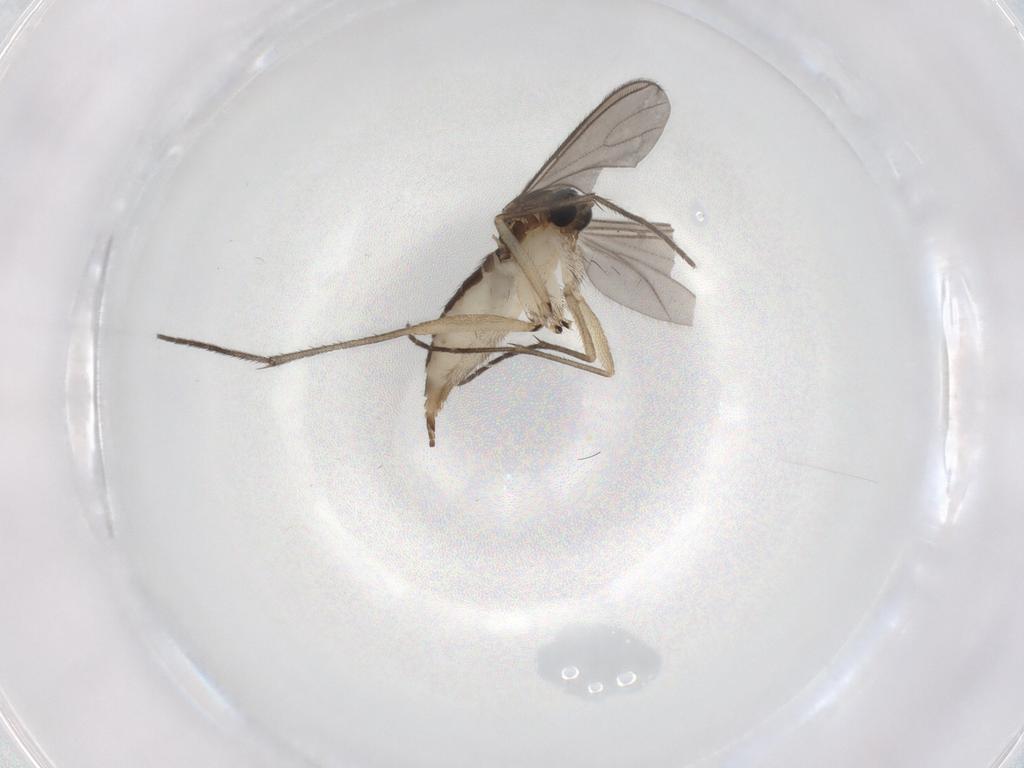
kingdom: Animalia
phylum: Arthropoda
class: Insecta
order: Diptera
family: Sciaridae
